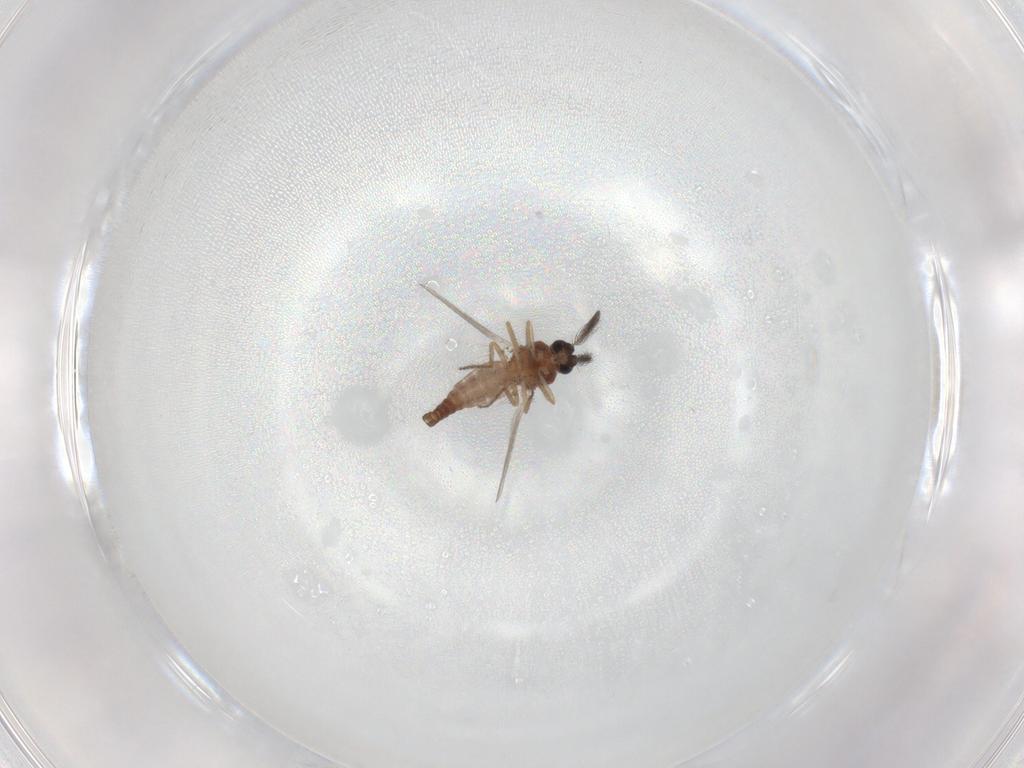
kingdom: Animalia
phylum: Arthropoda
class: Insecta
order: Diptera
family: Ceratopogonidae
